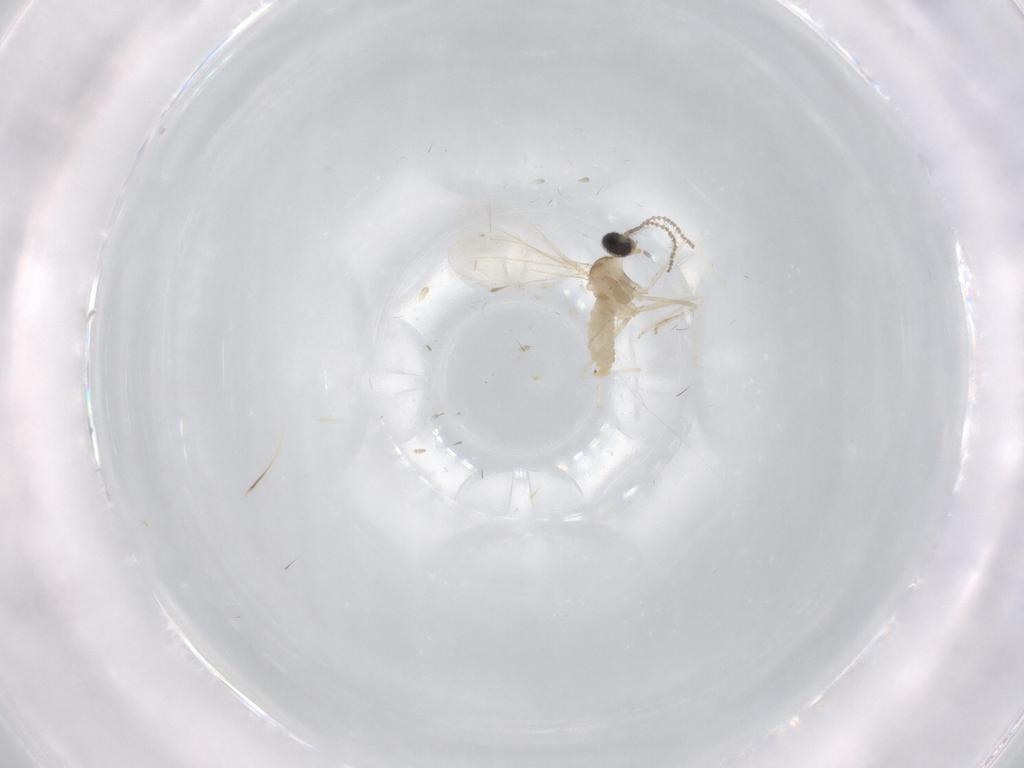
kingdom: Animalia
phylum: Arthropoda
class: Insecta
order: Diptera
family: Cecidomyiidae
